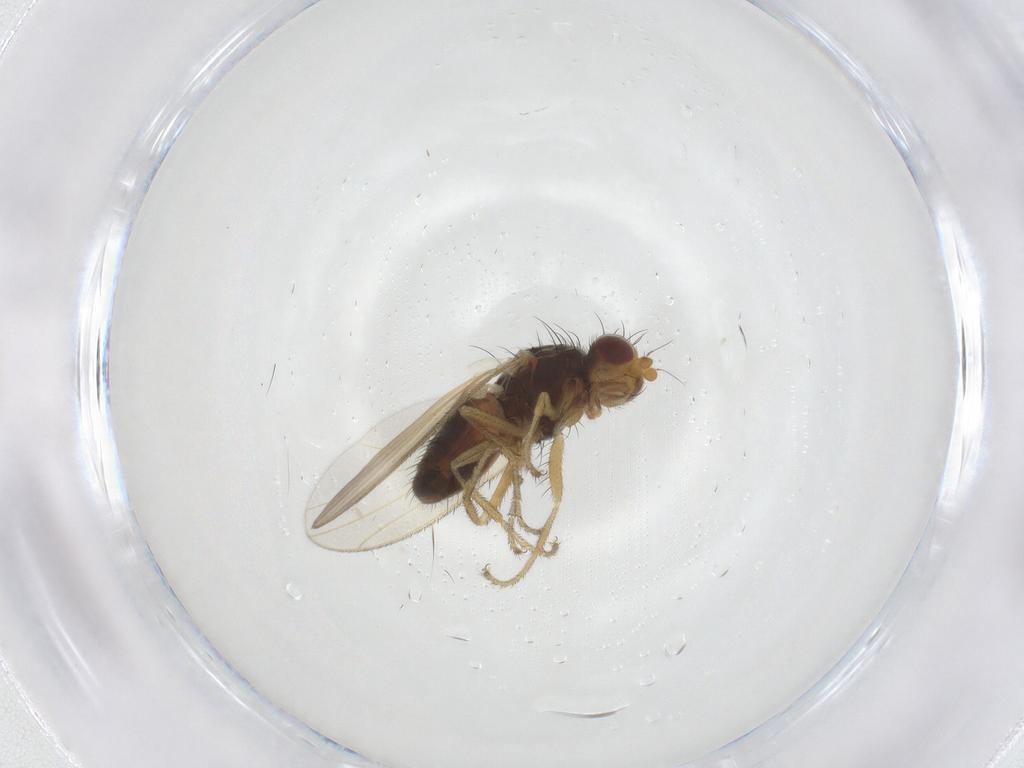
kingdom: Animalia
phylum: Arthropoda
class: Insecta
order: Diptera
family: Heleomyzidae
